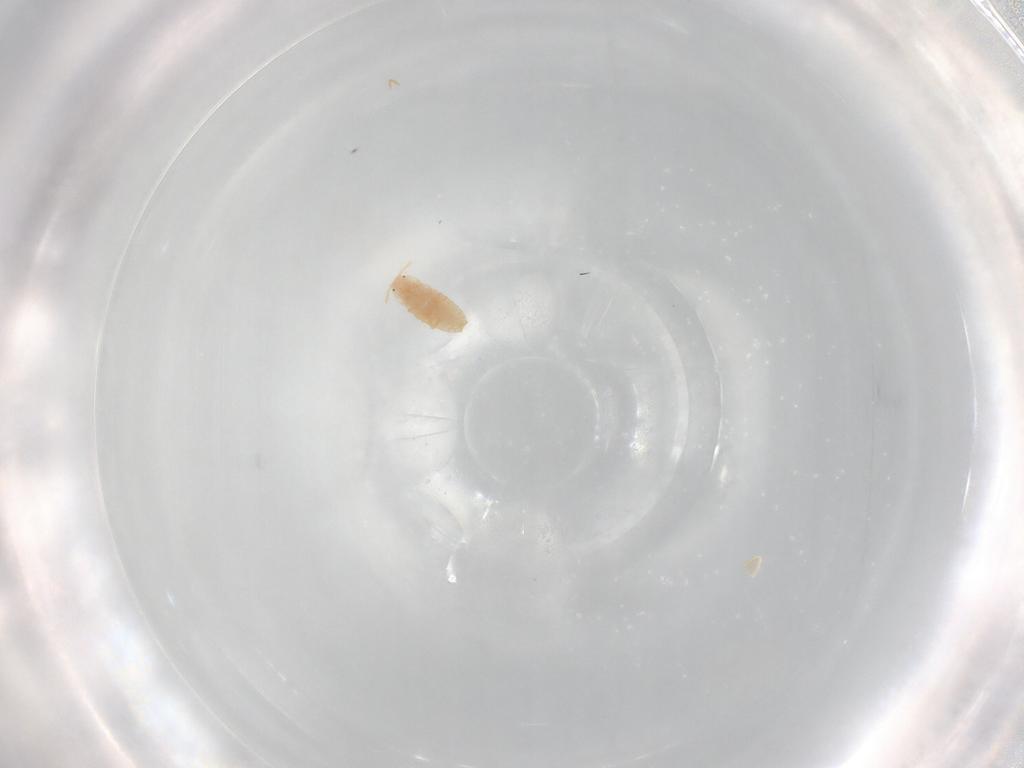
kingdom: Animalia
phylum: Arthropoda
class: Insecta
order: Hemiptera
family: Coccoidea_incertae_sedis
